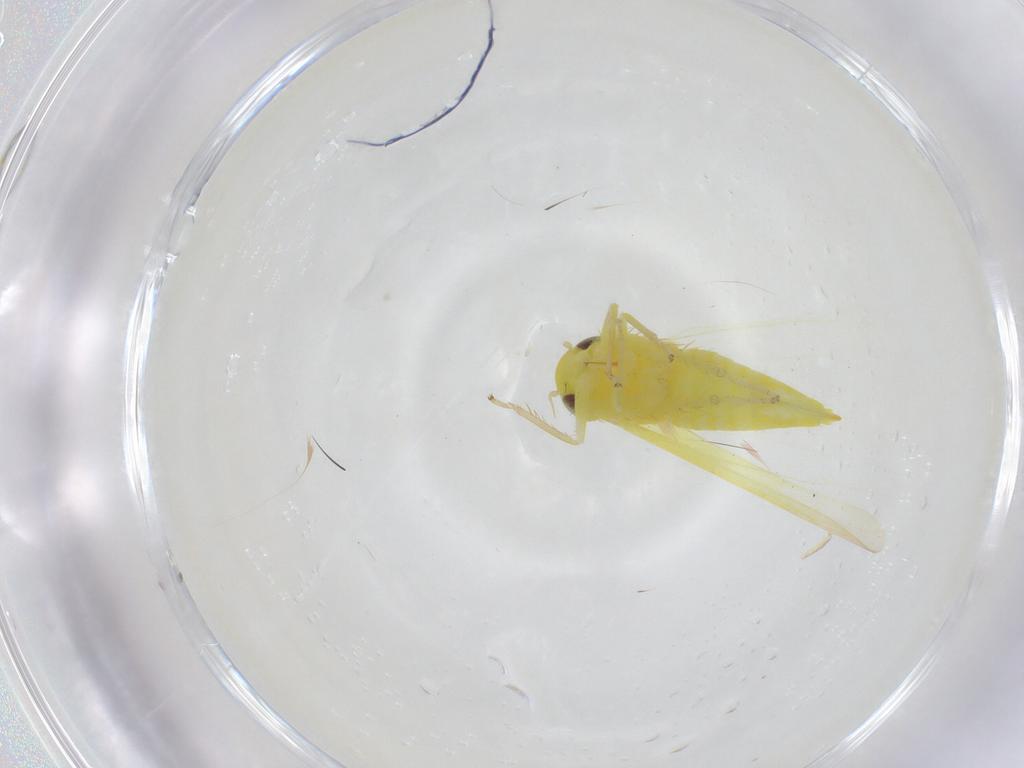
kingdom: Animalia
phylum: Arthropoda
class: Insecta
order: Hemiptera
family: Cicadellidae
